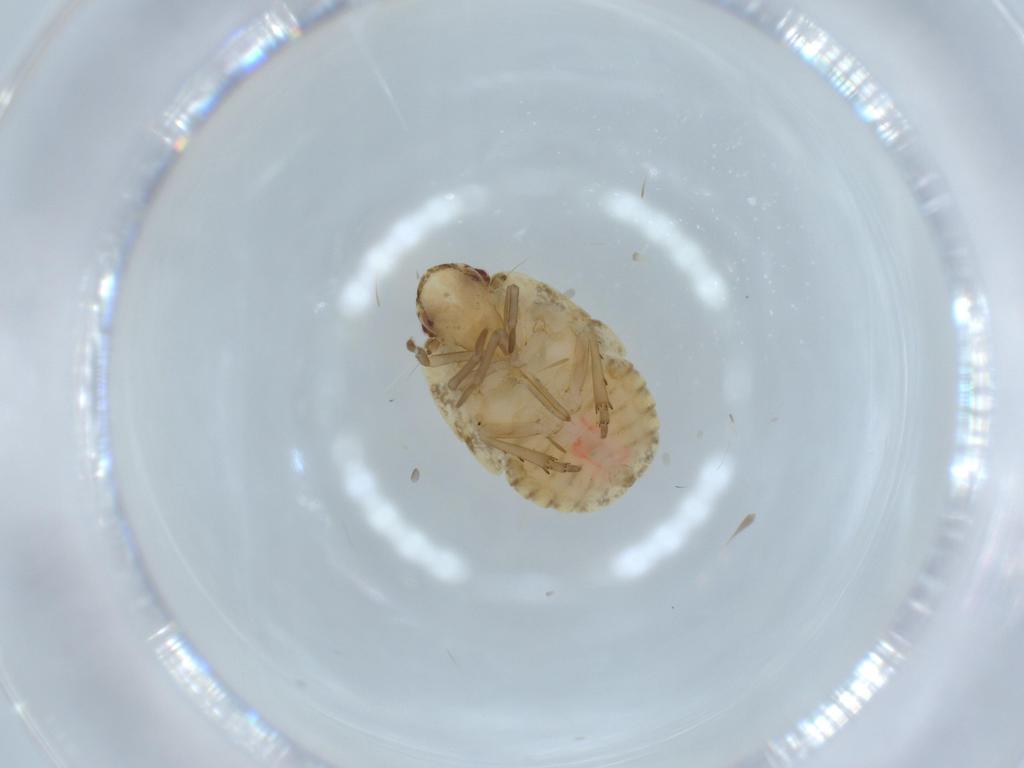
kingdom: Animalia
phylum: Arthropoda
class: Insecta
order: Hemiptera
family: Flatidae
